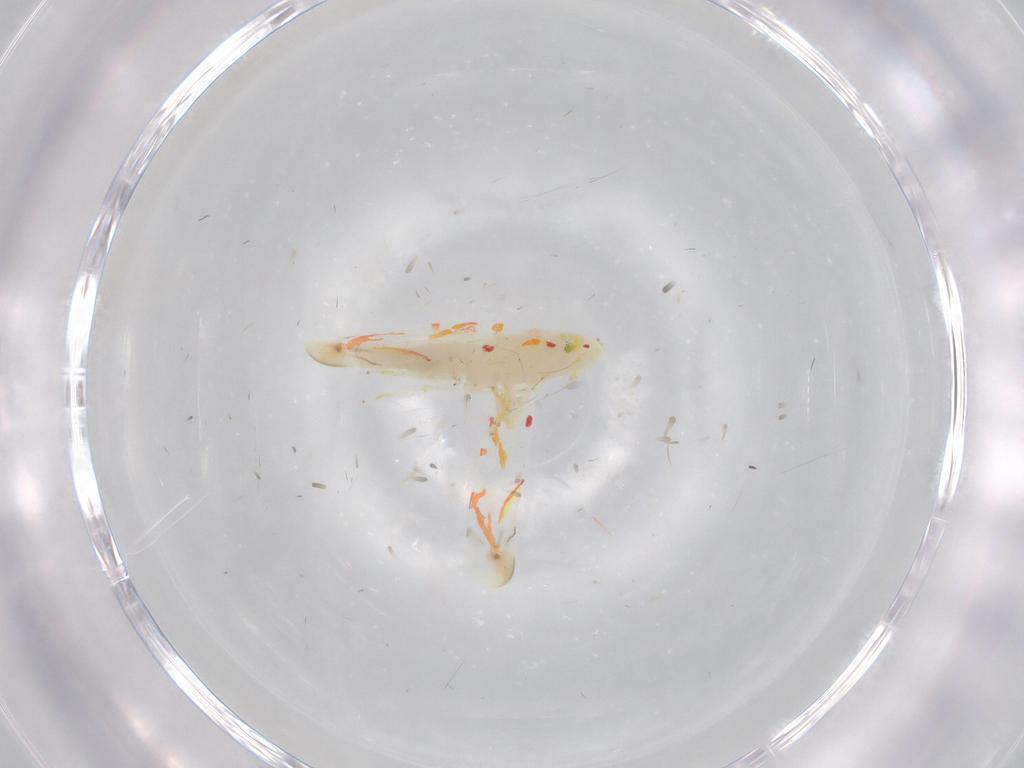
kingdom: Animalia
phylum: Arthropoda
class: Insecta
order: Hemiptera
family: Cicadellidae
